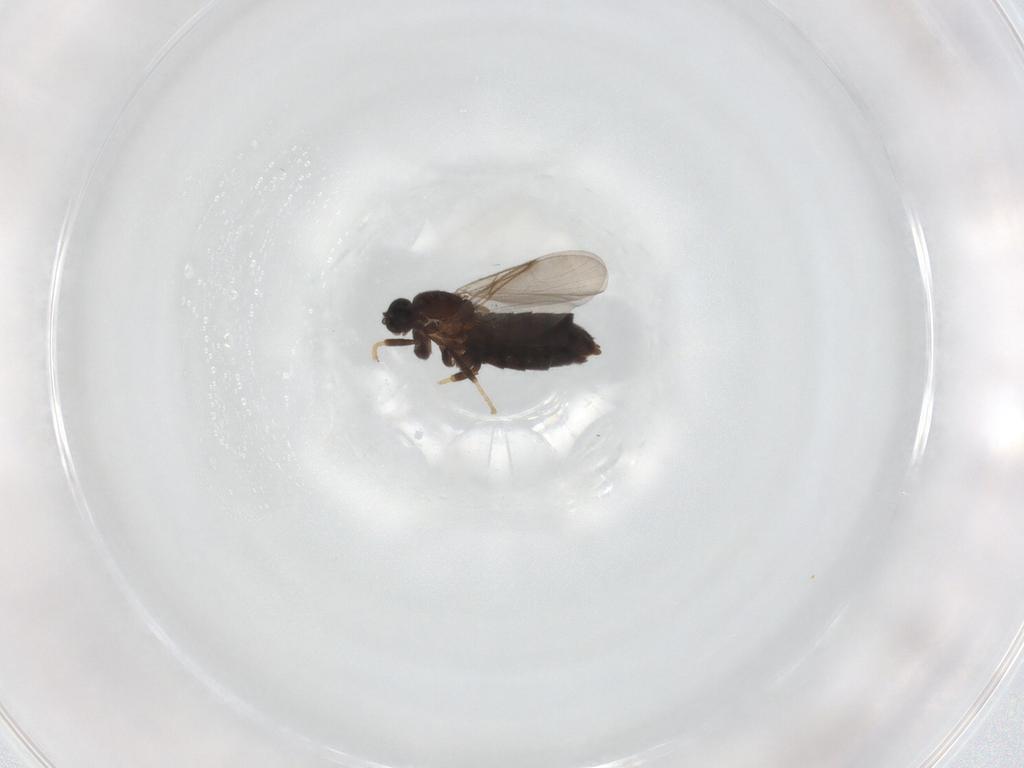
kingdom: Animalia
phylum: Arthropoda
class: Insecta
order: Diptera
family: Scatopsidae
